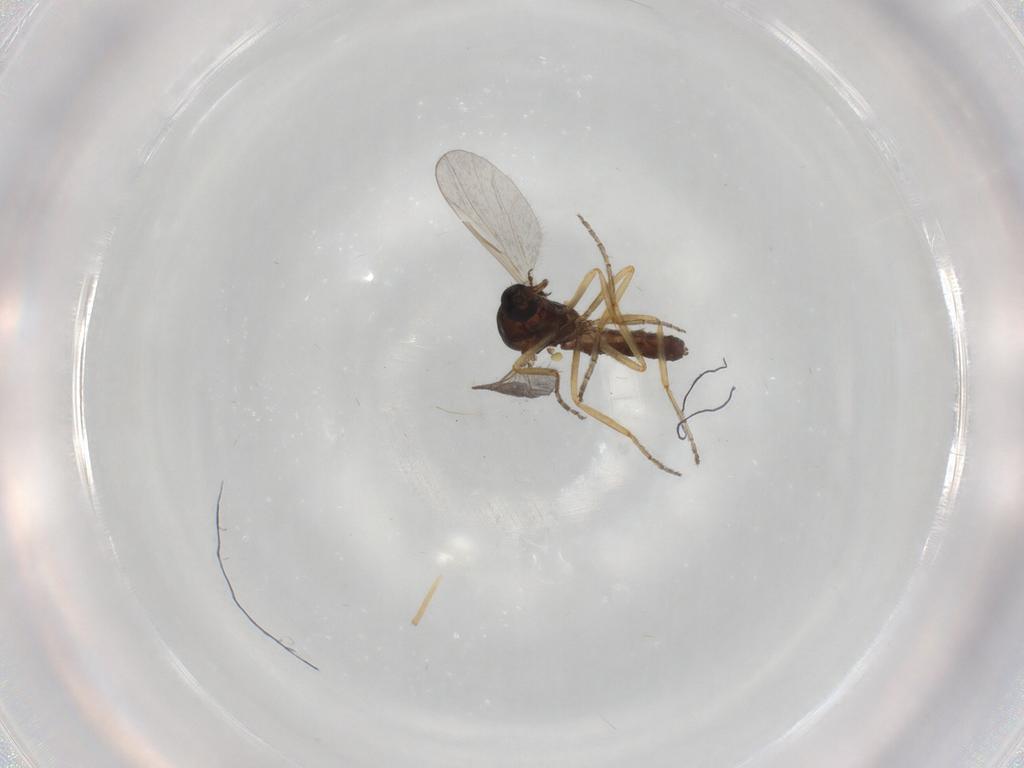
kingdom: Animalia
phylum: Arthropoda
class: Insecta
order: Diptera
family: Ceratopogonidae
